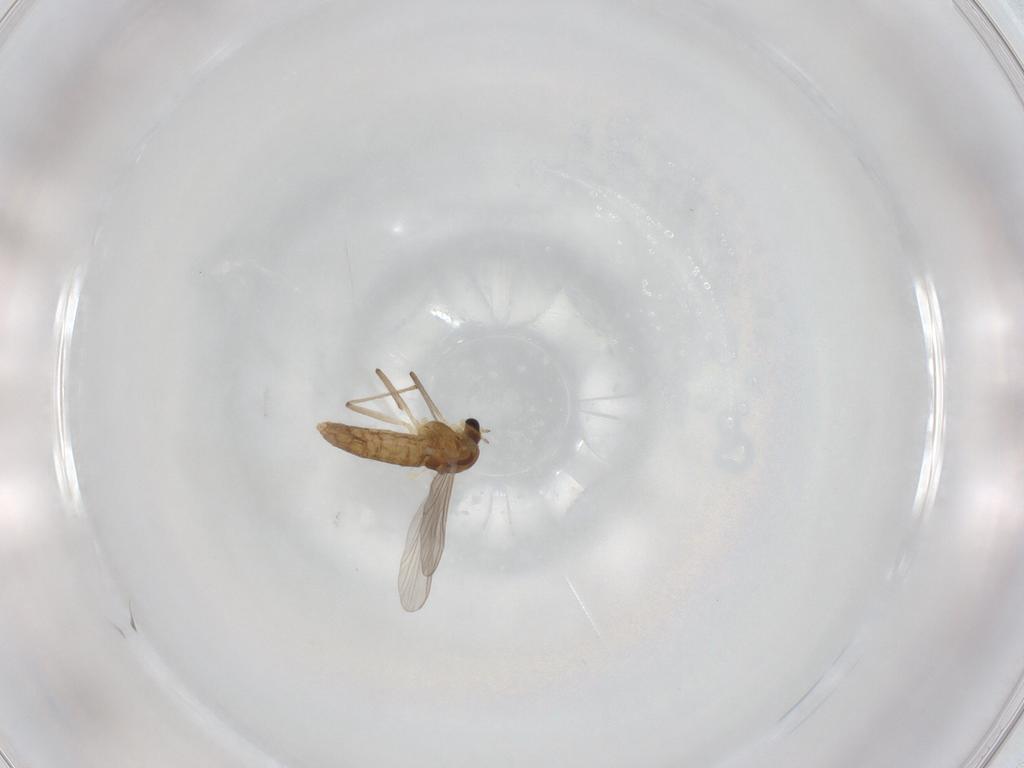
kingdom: Animalia
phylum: Arthropoda
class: Insecta
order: Diptera
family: Chironomidae
